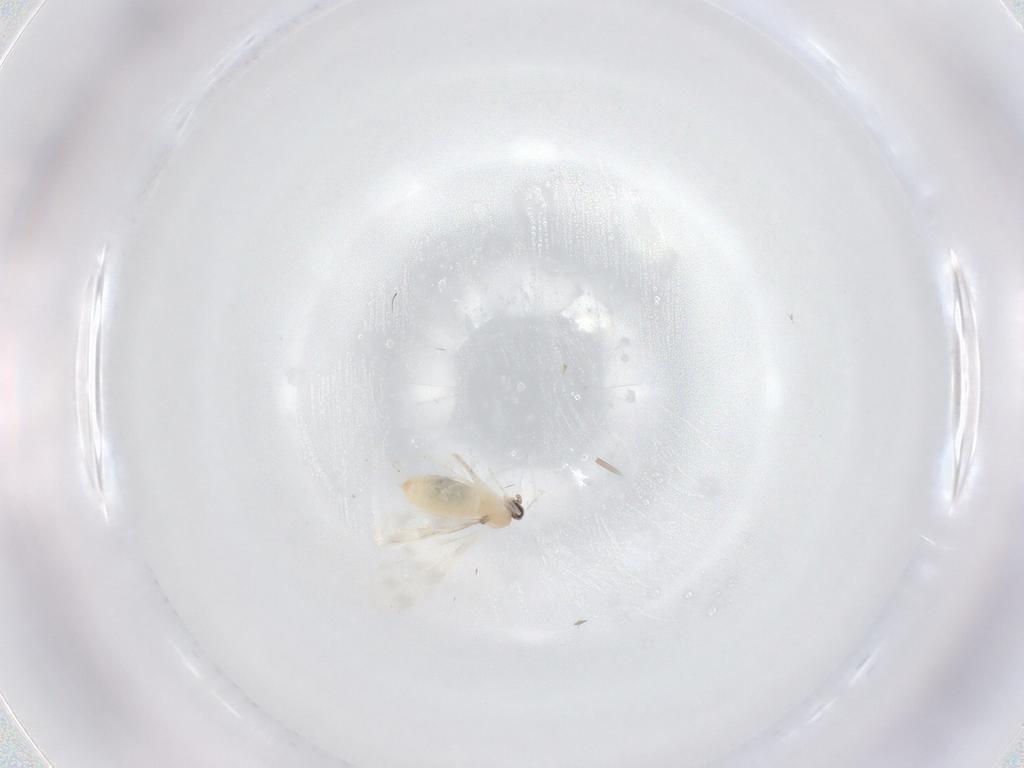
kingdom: Animalia
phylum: Arthropoda
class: Insecta
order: Diptera
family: Cecidomyiidae
